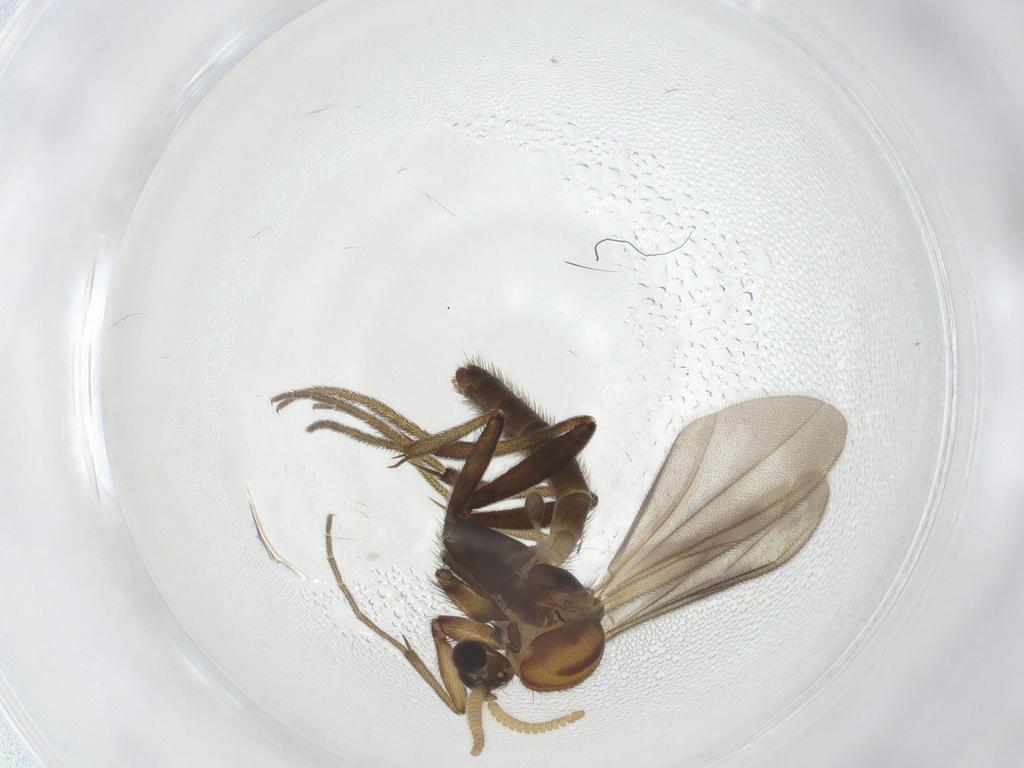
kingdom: Animalia
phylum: Arthropoda
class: Insecta
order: Diptera
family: Mycetophilidae
